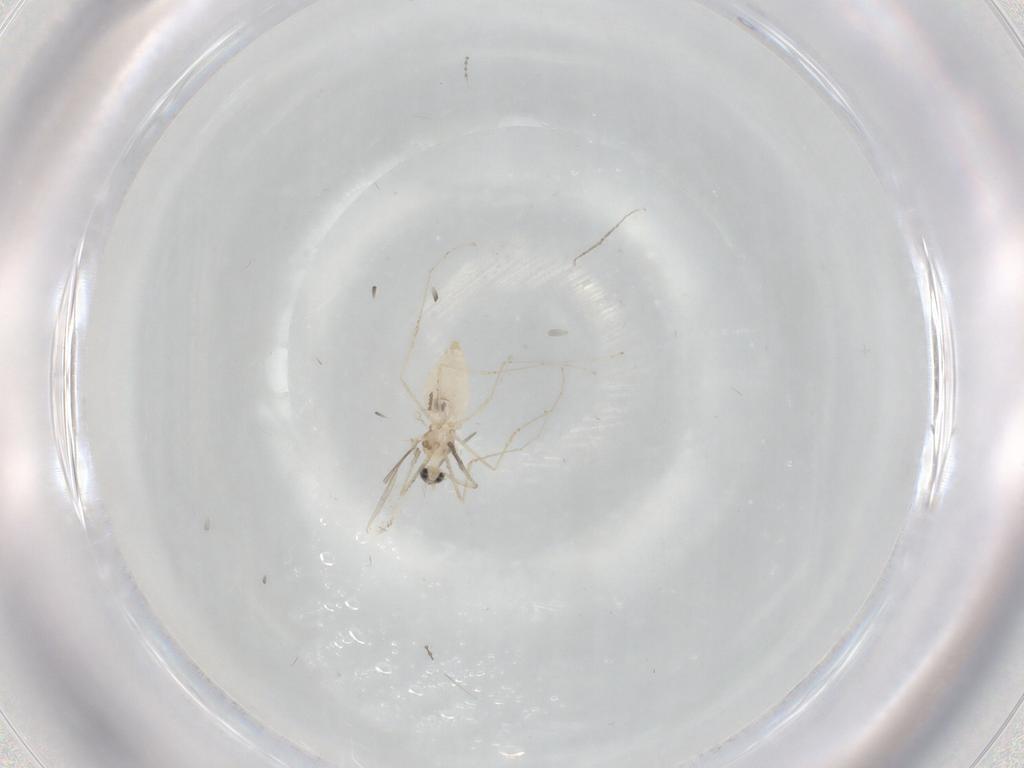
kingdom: Animalia
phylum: Arthropoda
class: Insecta
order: Diptera
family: Cecidomyiidae
